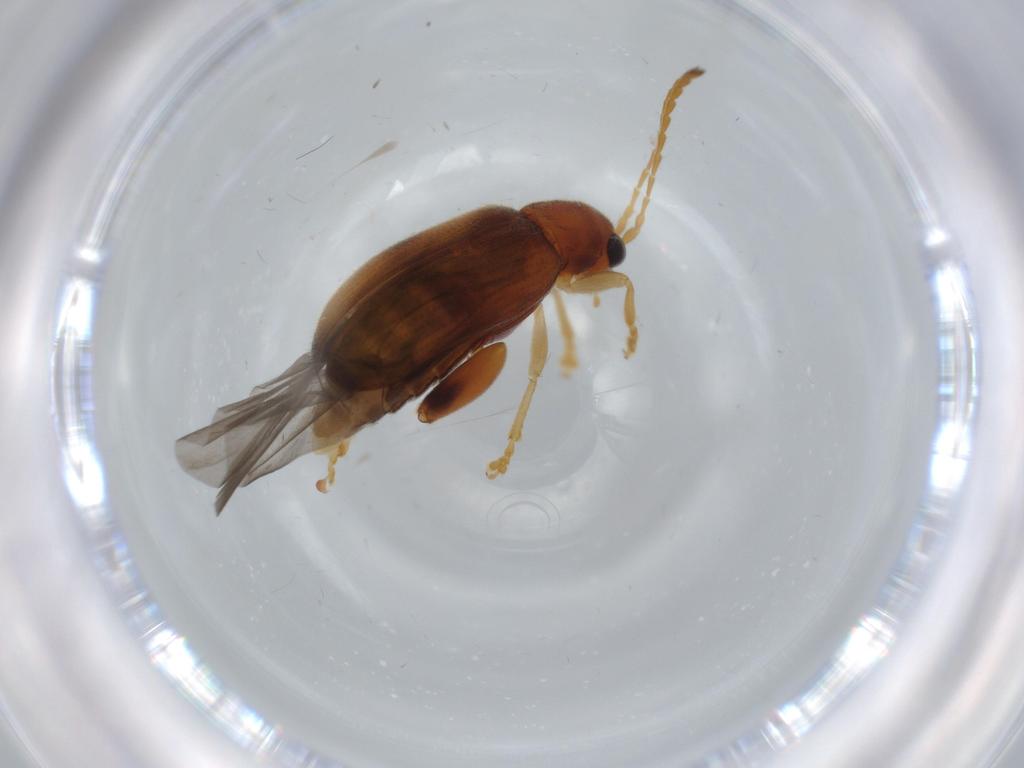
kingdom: Animalia
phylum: Arthropoda
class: Insecta
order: Coleoptera
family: Chrysomelidae
